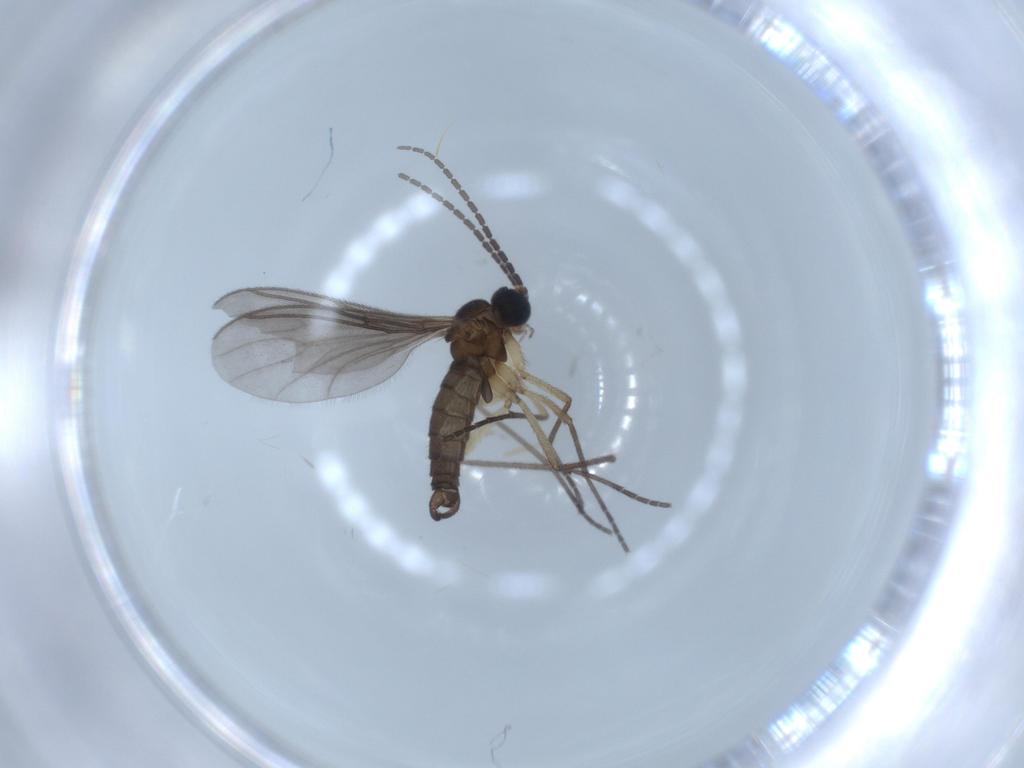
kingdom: Animalia
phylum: Arthropoda
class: Insecta
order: Diptera
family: Sciaridae
